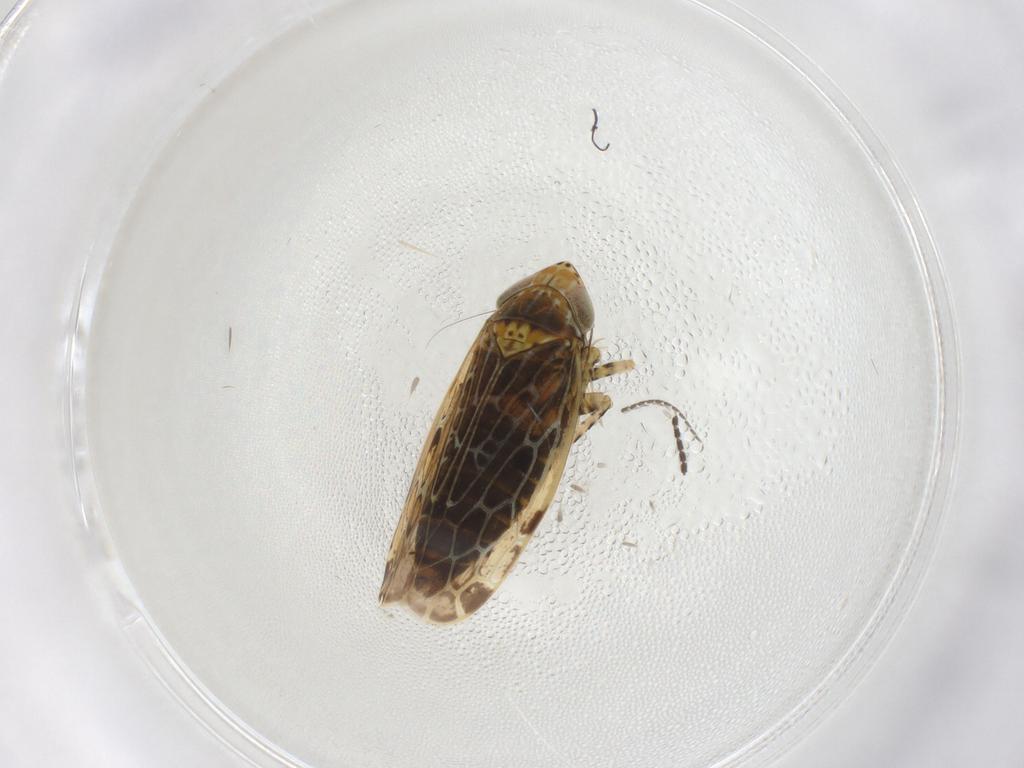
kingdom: Animalia
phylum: Arthropoda
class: Insecta
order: Hemiptera
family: Cicadellidae
